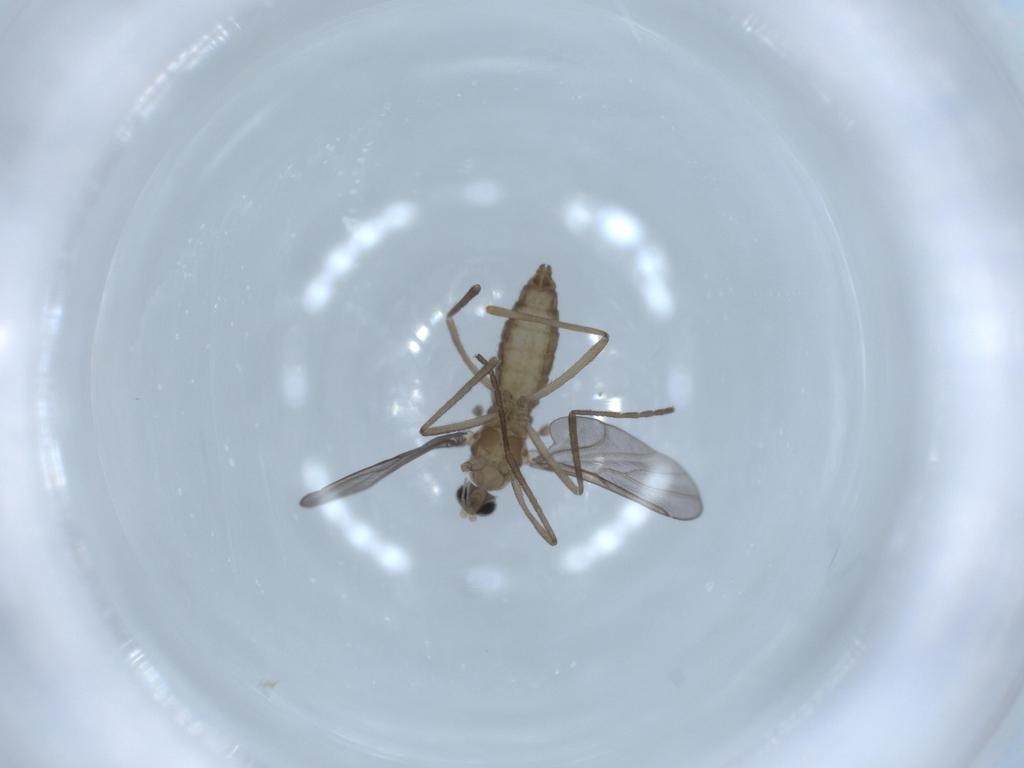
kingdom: Animalia
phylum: Arthropoda
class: Insecta
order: Diptera
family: Cecidomyiidae
